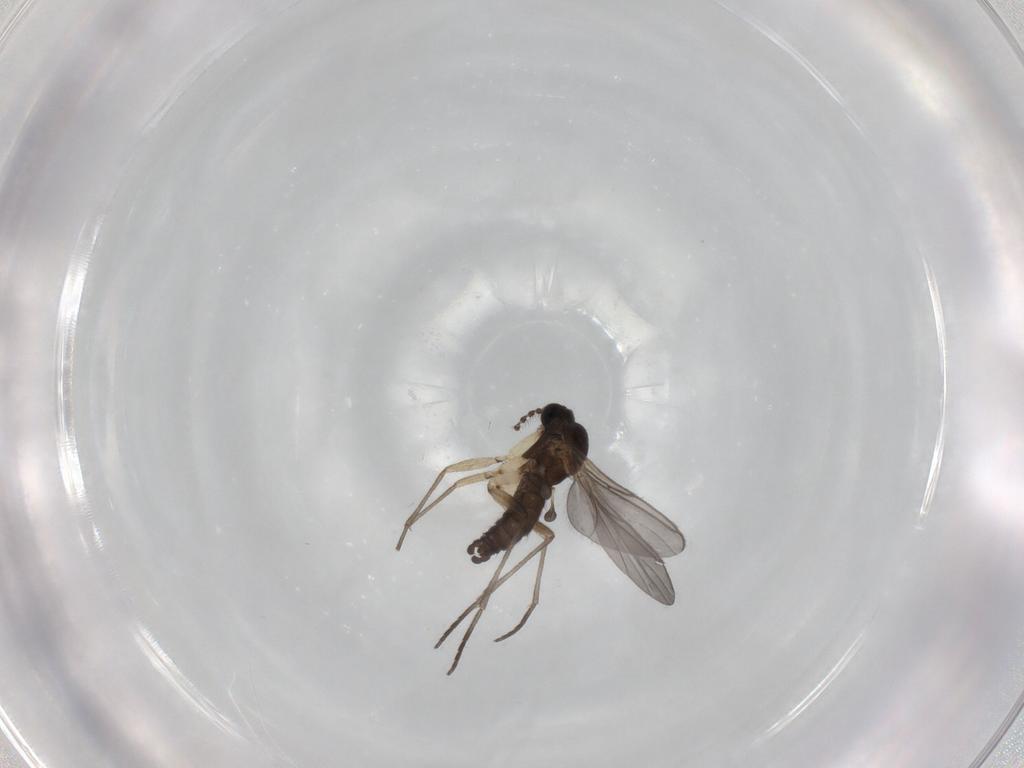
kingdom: Animalia
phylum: Arthropoda
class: Insecta
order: Diptera
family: Sciaridae
